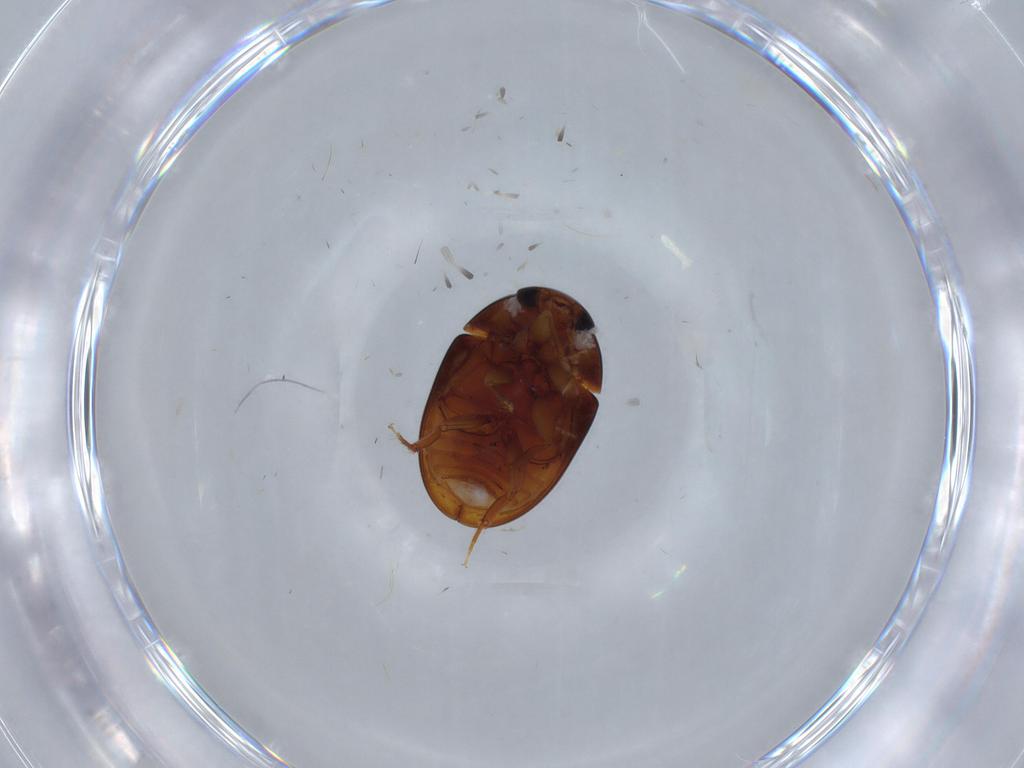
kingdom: Animalia
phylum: Arthropoda
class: Insecta
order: Coleoptera
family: Phalacridae
